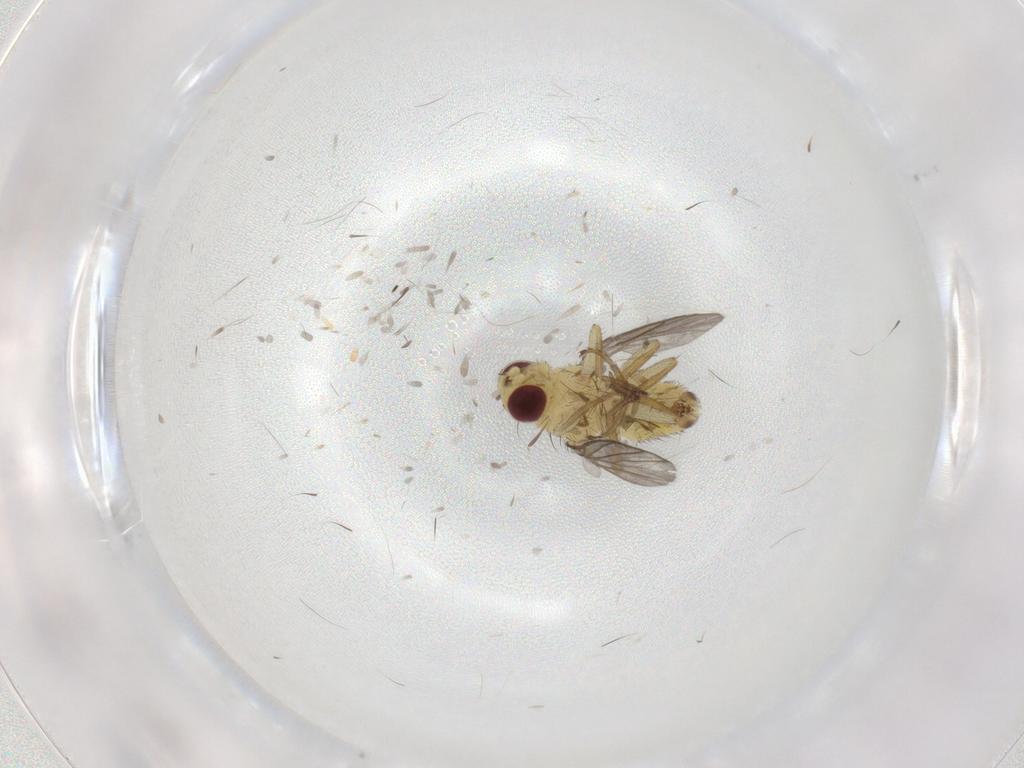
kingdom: Animalia
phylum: Arthropoda
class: Insecta
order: Diptera
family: Agromyzidae
